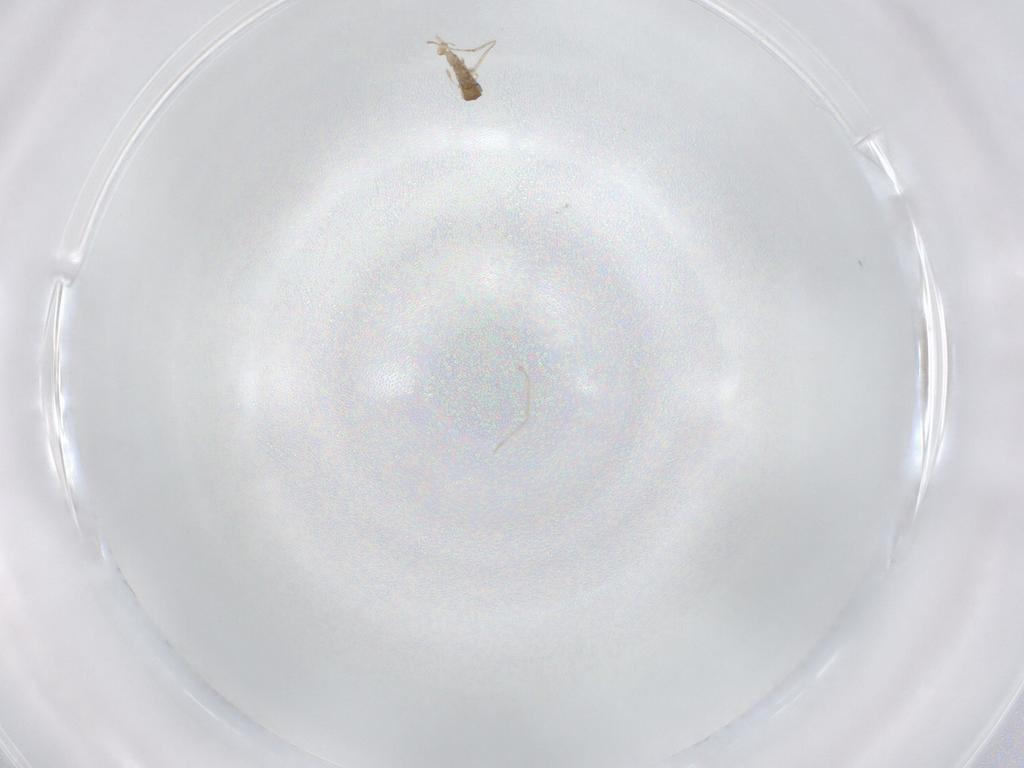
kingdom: Animalia
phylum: Arthropoda
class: Insecta
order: Diptera
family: Cecidomyiidae
